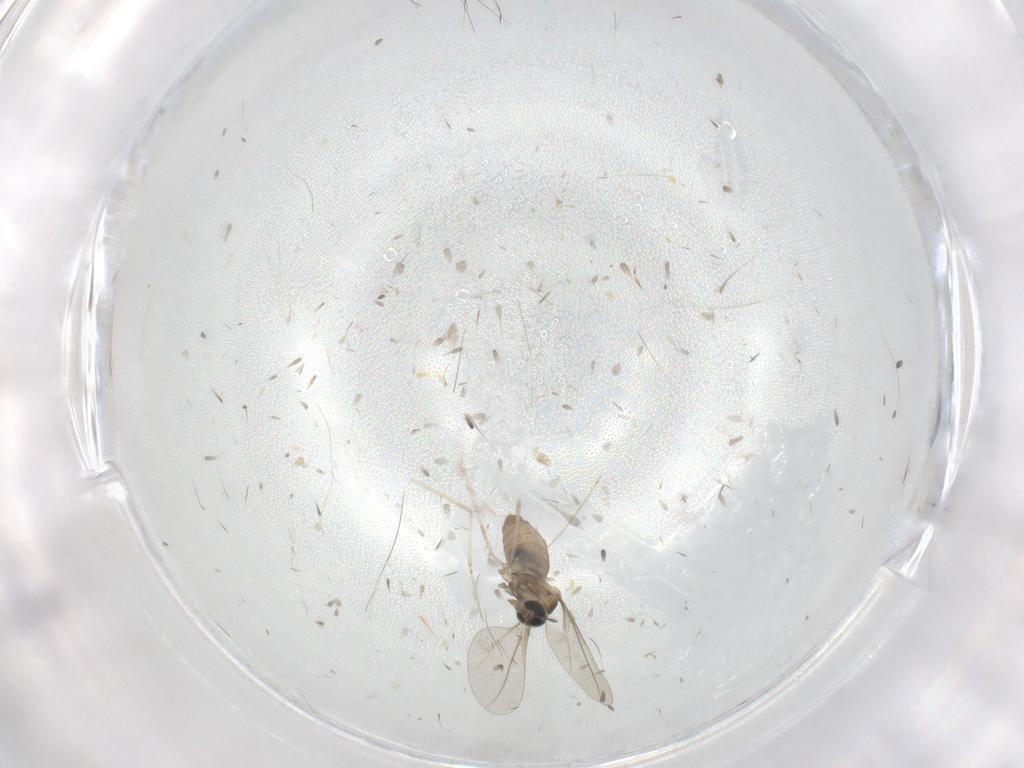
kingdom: Animalia
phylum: Arthropoda
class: Insecta
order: Diptera
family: Cecidomyiidae
